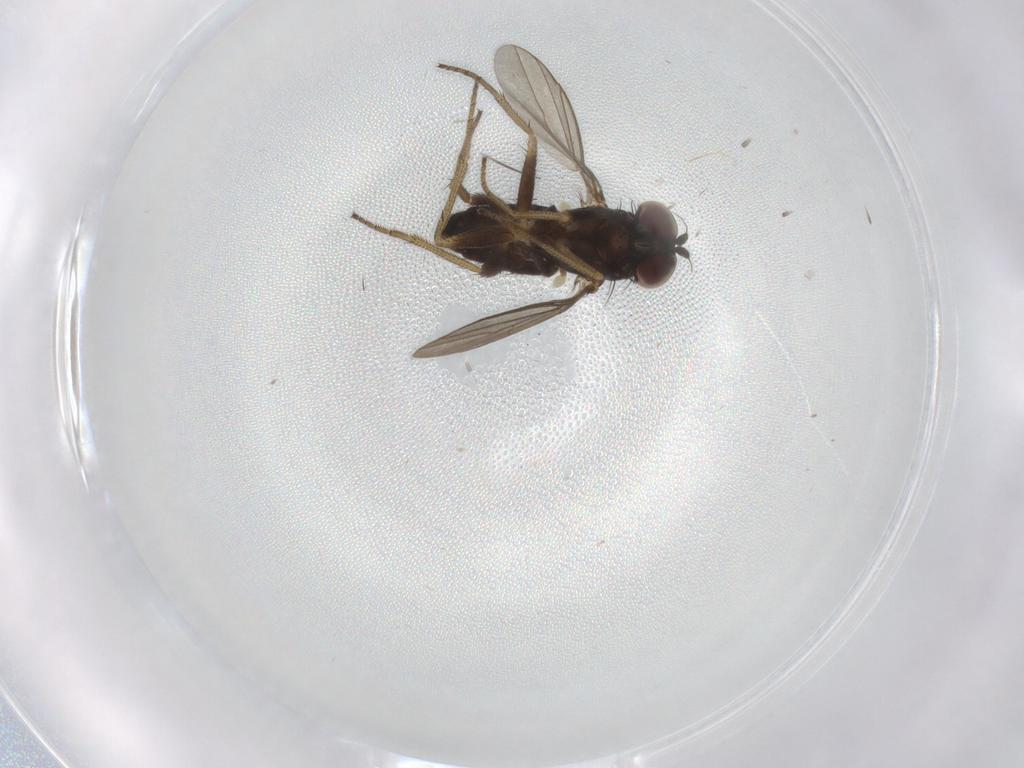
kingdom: Animalia
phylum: Arthropoda
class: Insecta
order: Diptera
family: Keroplatidae
